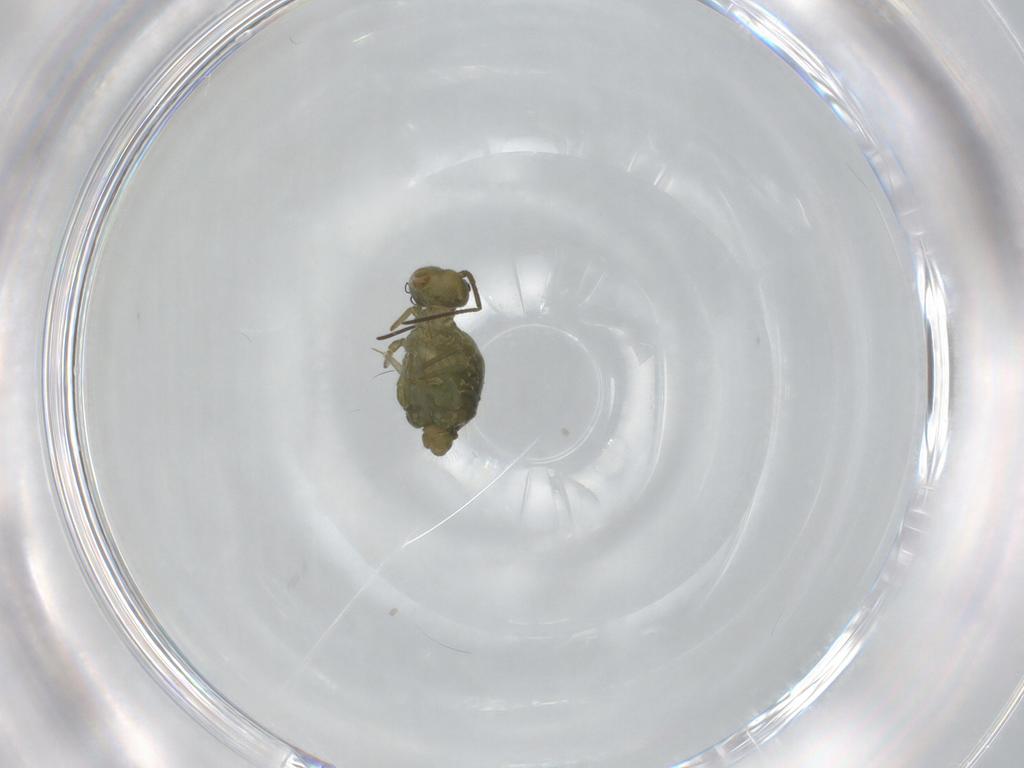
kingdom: Animalia
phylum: Arthropoda
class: Collembola
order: Symphypleona
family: Sminthuridae
